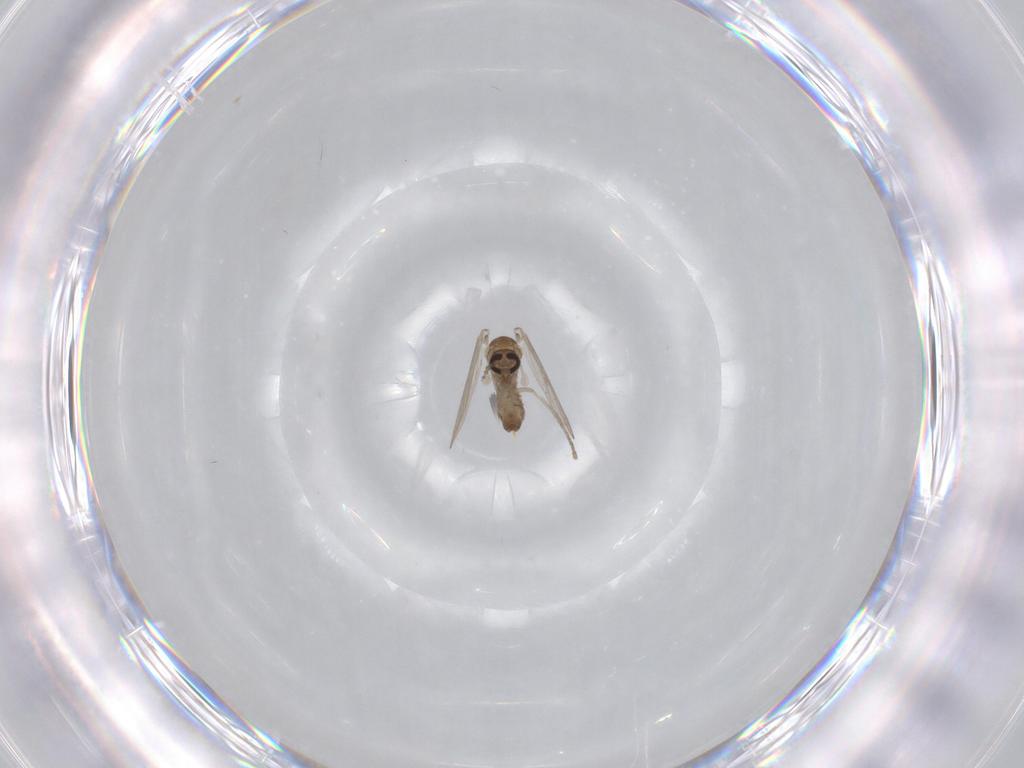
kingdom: Animalia
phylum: Arthropoda
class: Insecta
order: Diptera
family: Psychodidae
